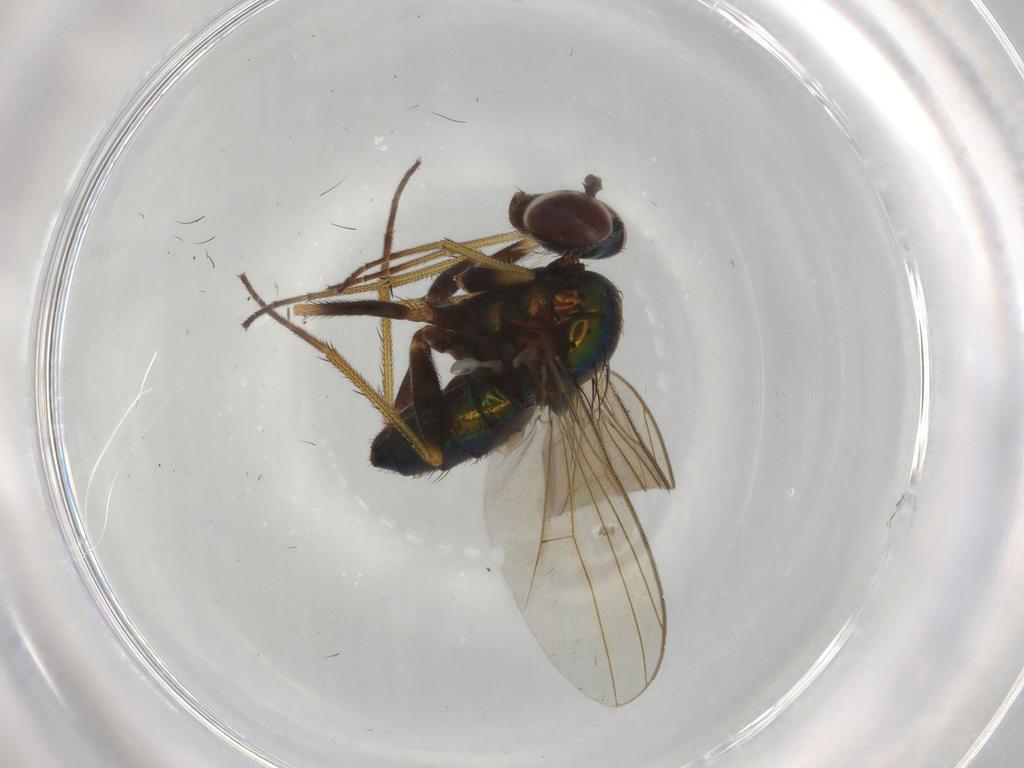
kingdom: Animalia
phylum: Arthropoda
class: Insecta
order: Diptera
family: Dolichopodidae
